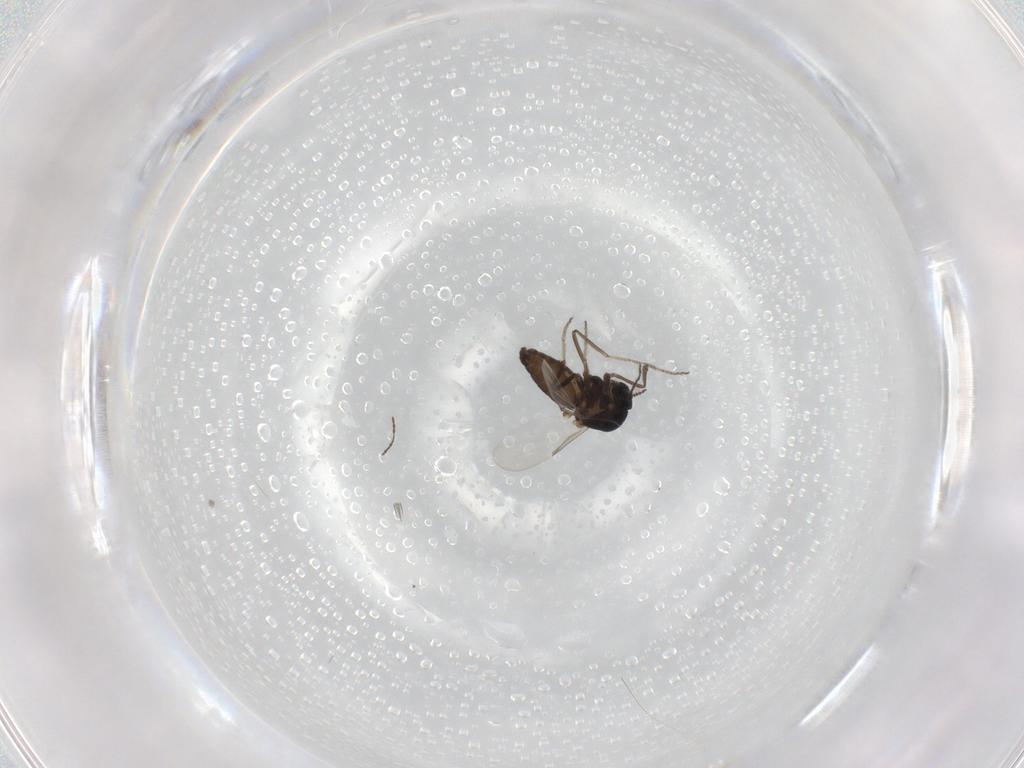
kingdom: Animalia
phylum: Arthropoda
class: Insecta
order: Diptera
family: Ceratopogonidae
